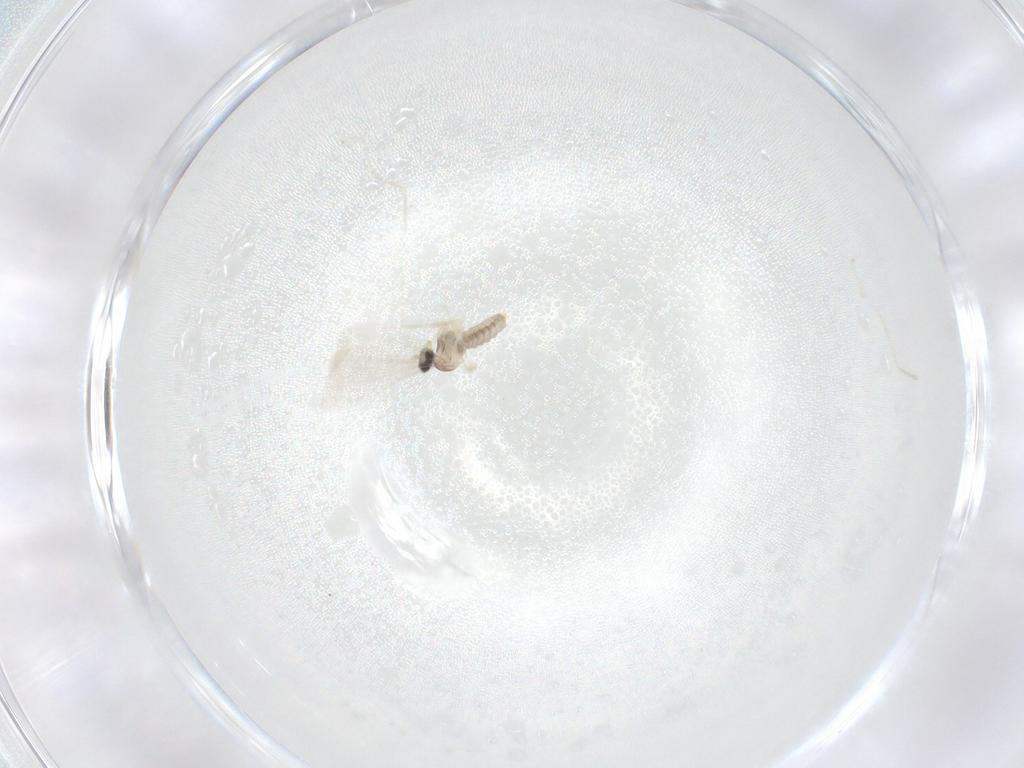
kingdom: Animalia
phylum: Arthropoda
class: Insecta
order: Diptera
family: Cecidomyiidae
